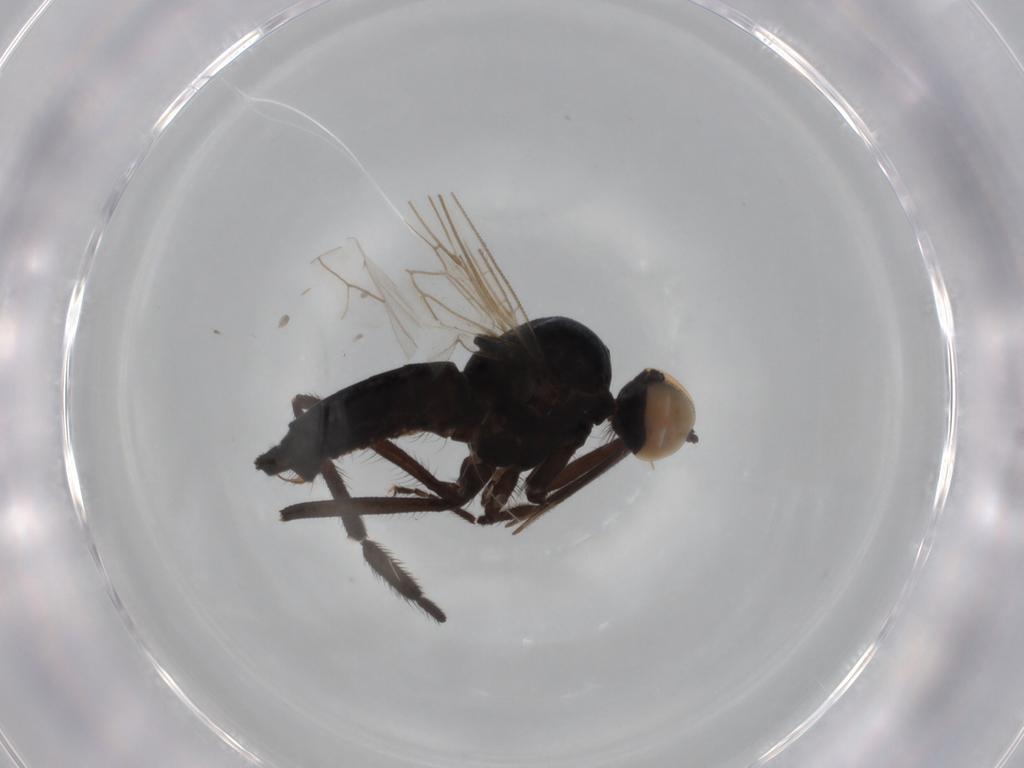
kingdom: Animalia
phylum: Arthropoda
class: Insecta
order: Diptera
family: Empididae
